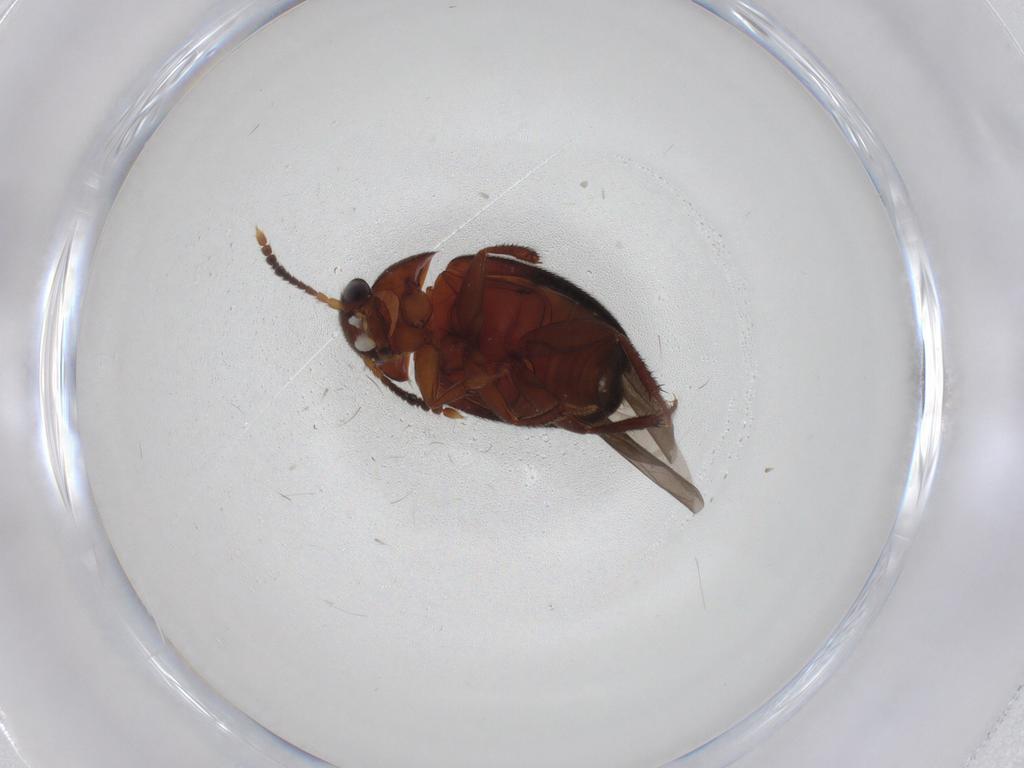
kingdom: Animalia
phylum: Arthropoda
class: Insecta
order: Coleoptera
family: Leiodidae
